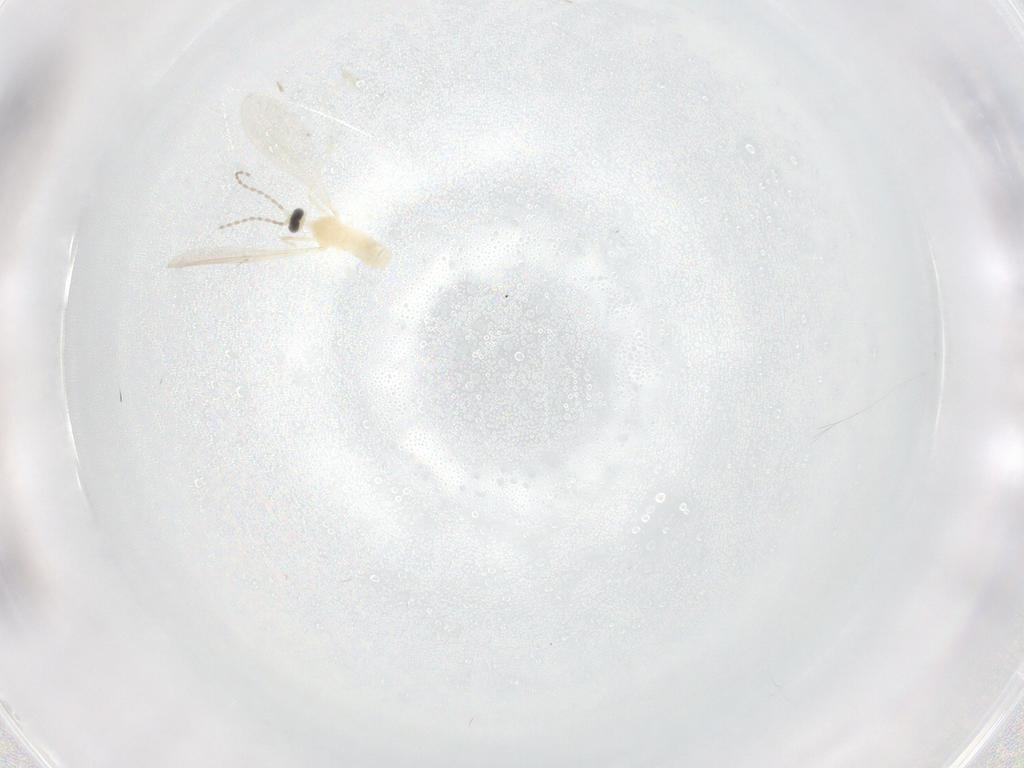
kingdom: Animalia
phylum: Arthropoda
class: Insecta
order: Diptera
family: Cecidomyiidae
